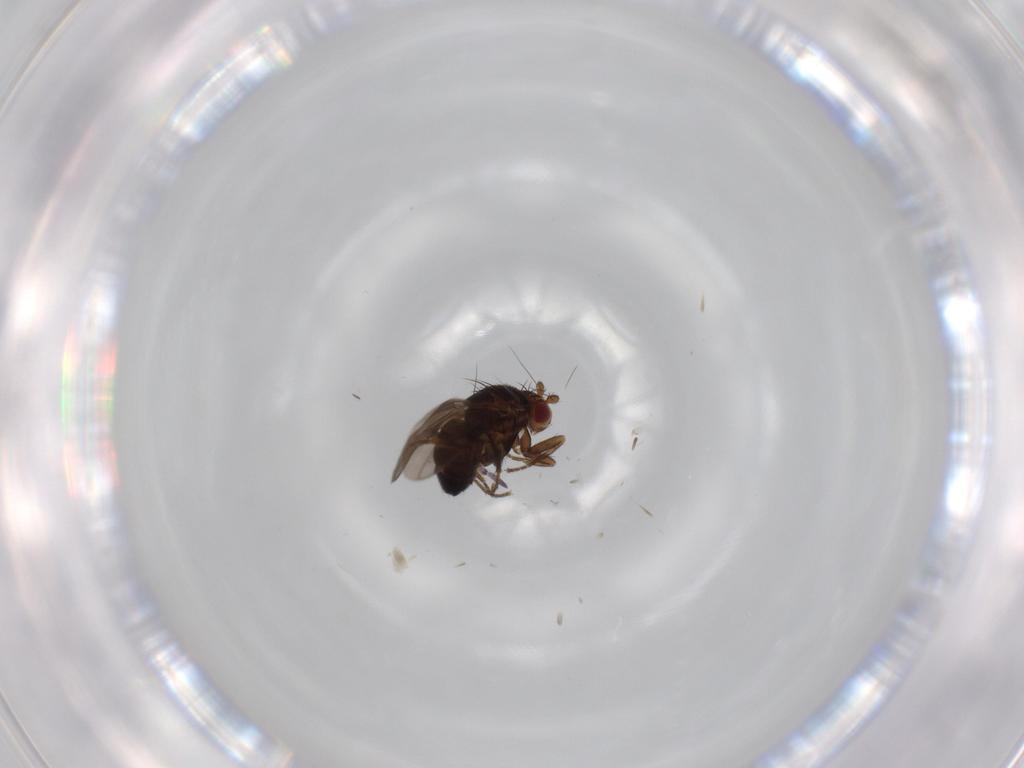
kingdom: Animalia
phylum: Arthropoda
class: Insecta
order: Diptera
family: Sphaeroceridae
